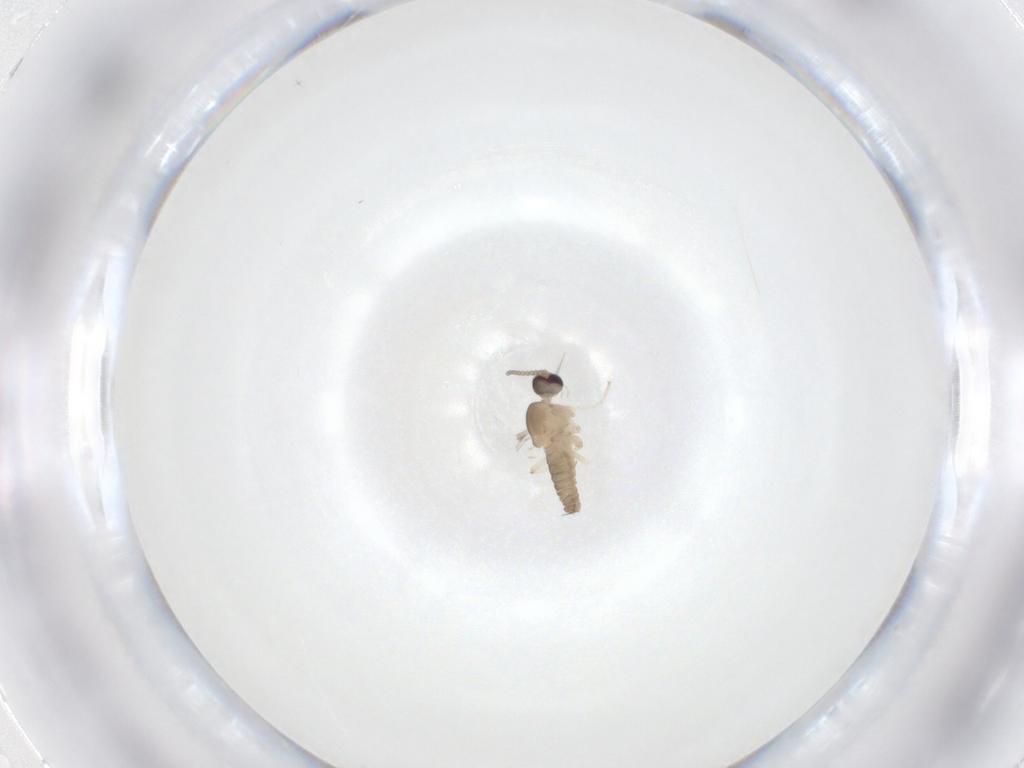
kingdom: Animalia
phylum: Arthropoda
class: Insecta
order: Diptera
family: Cecidomyiidae
